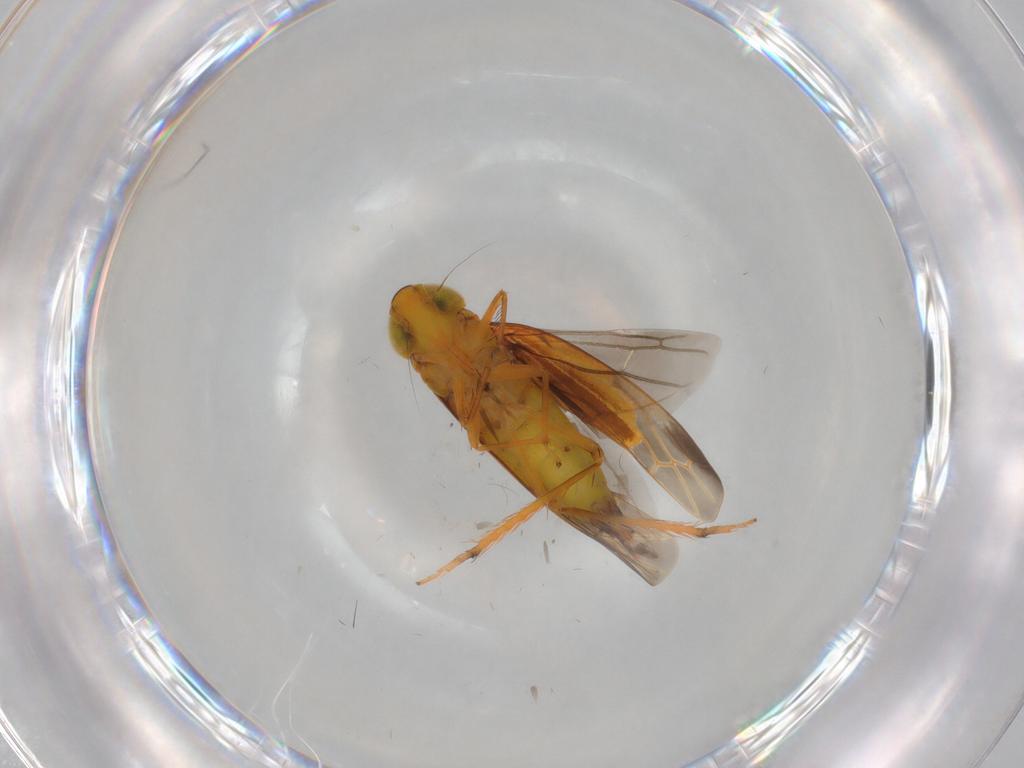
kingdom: Animalia
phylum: Arthropoda
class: Insecta
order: Hemiptera
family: Cicadellidae
